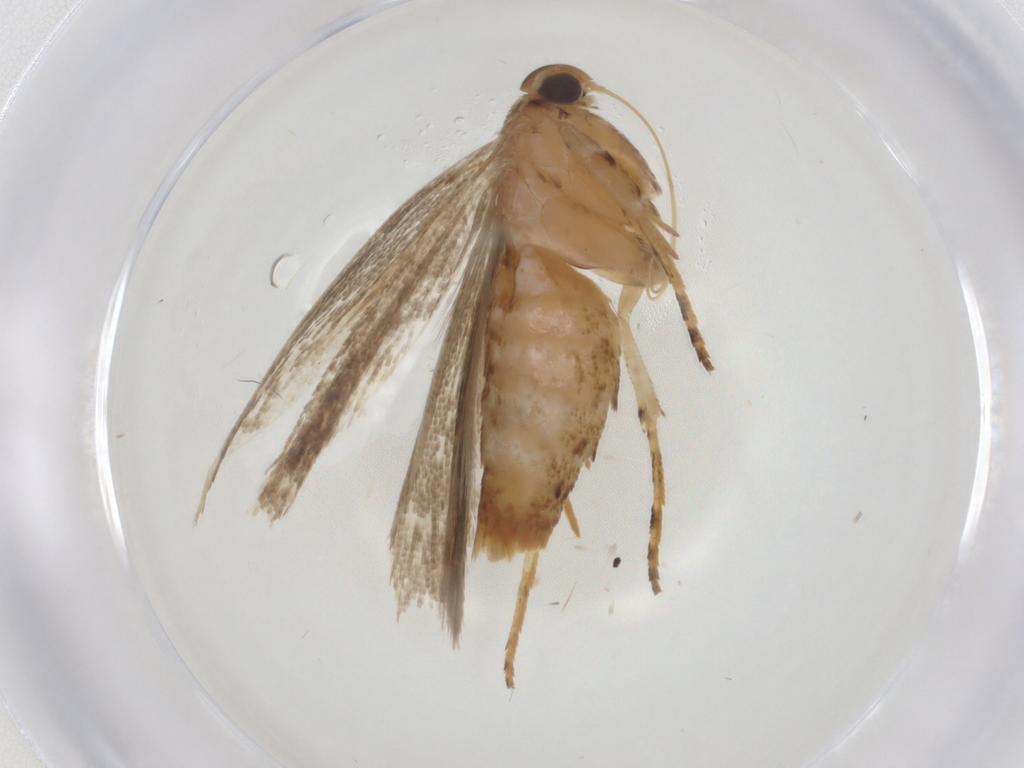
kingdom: Animalia
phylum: Arthropoda
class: Insecta
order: Lepidoptera
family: Gelechiidae
